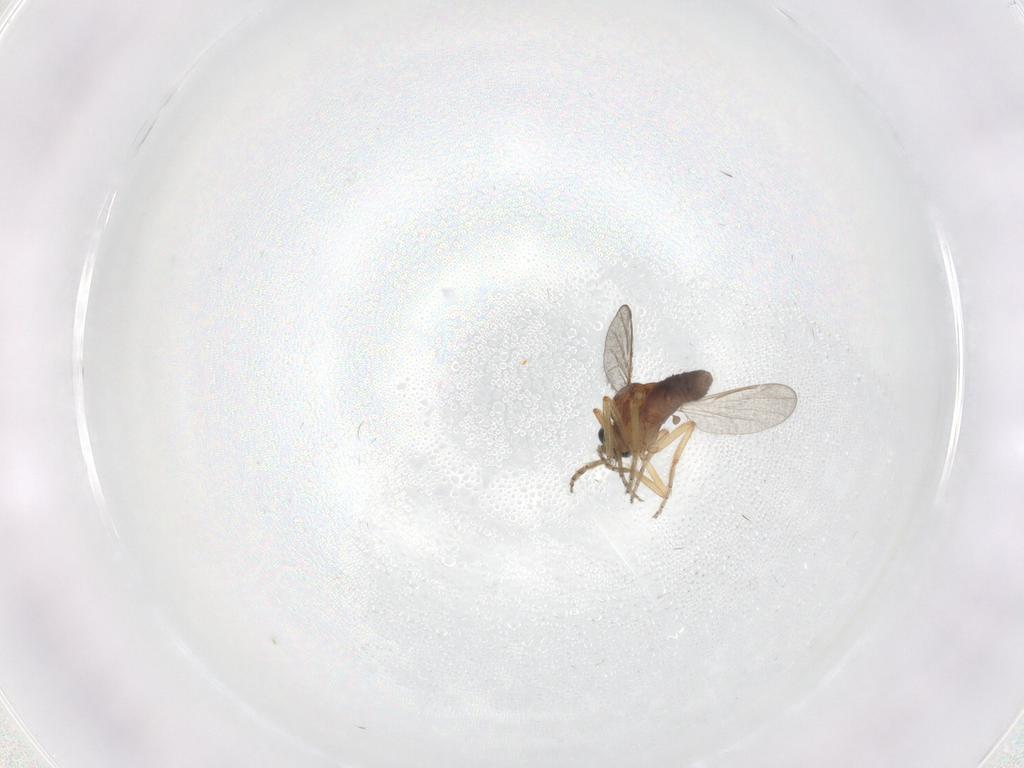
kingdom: Animalia
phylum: Arthropoda
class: Insecta
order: Diptera
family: Ceratopogonidae
